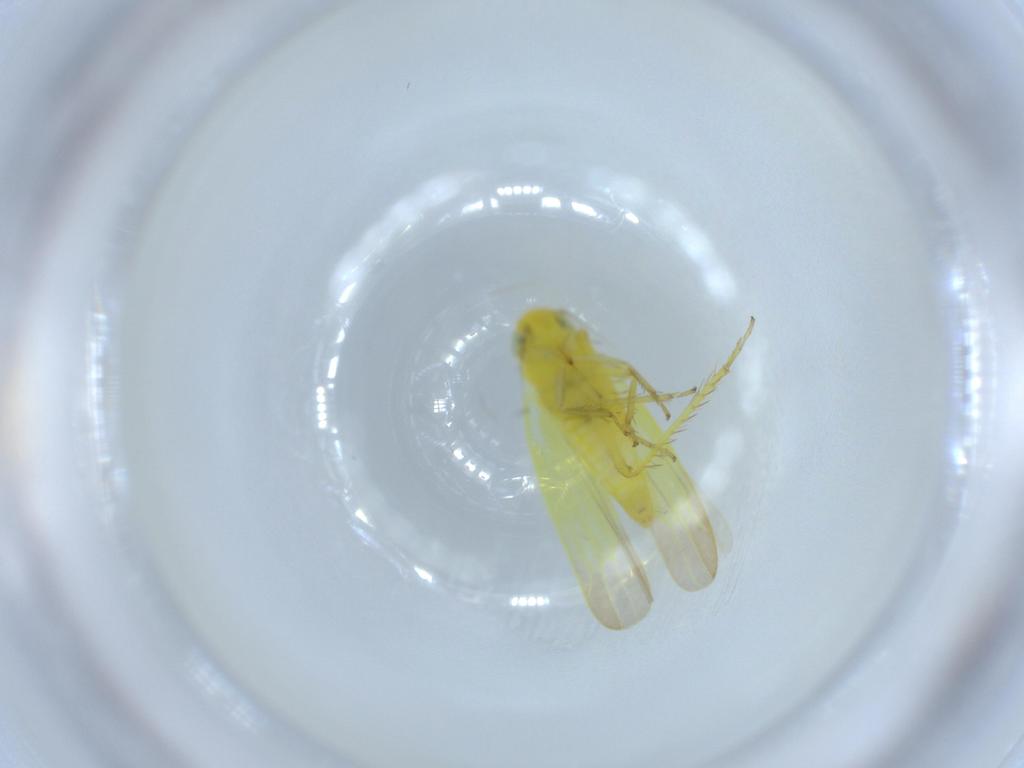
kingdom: Animalia
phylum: Arthropoda
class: Insecta
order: Hemiptera
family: Cicadellidae
